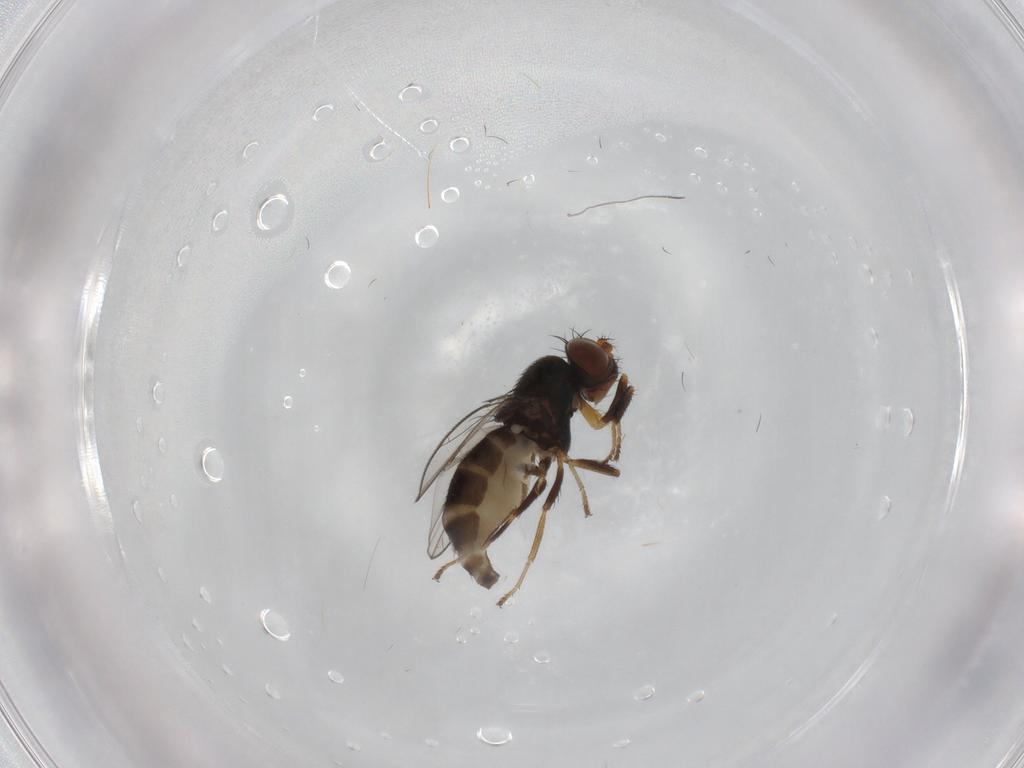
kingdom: Animalia
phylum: Arthropoda
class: Insecta
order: Diptera
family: Ephydridae
